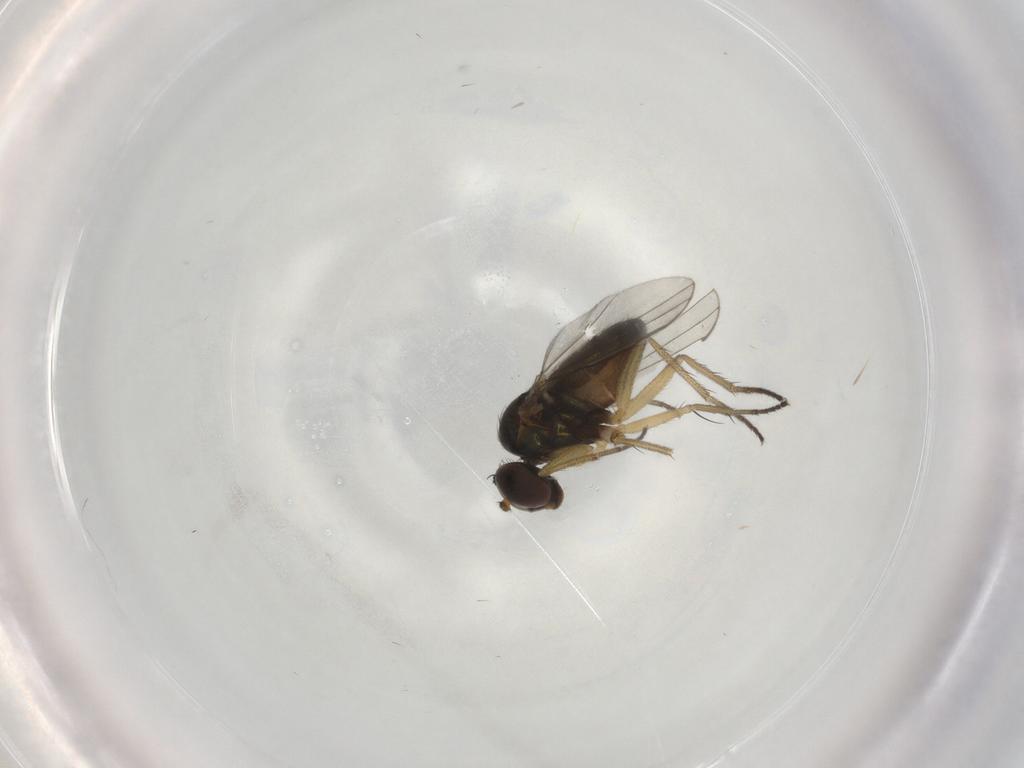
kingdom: Animalia
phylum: Arthropoda
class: Insecta
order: Diptera
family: Dolichopodidae
